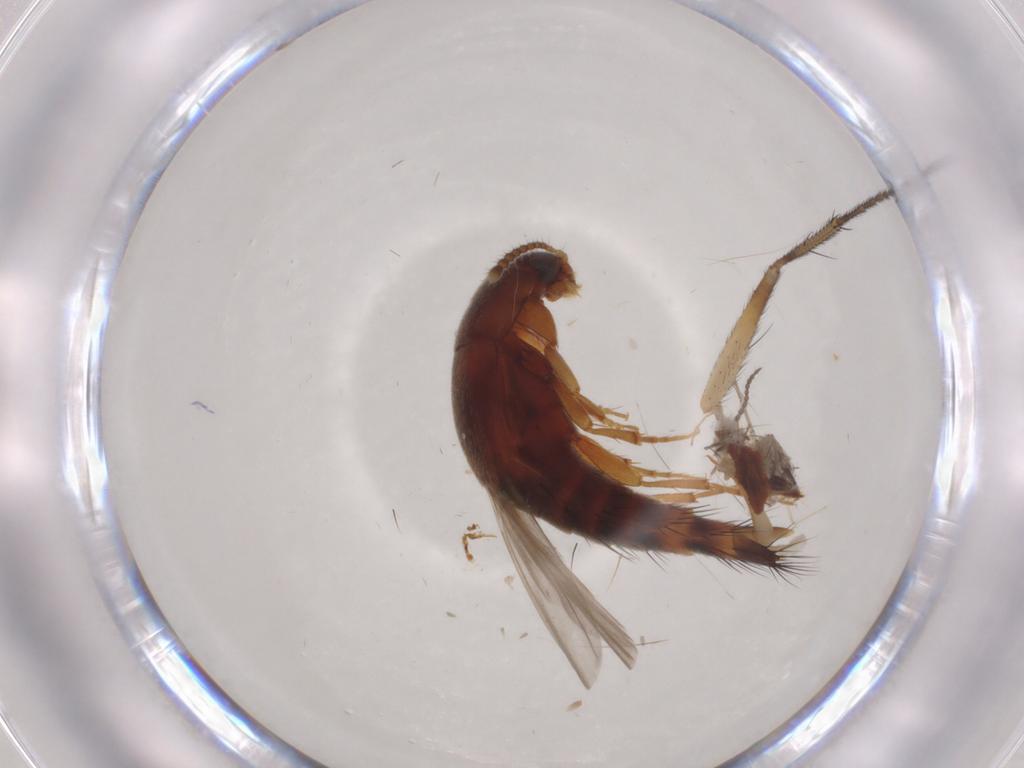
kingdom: Animalia
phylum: Arthropoda
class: Insecta
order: Coleoptera
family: Staphylinidae
